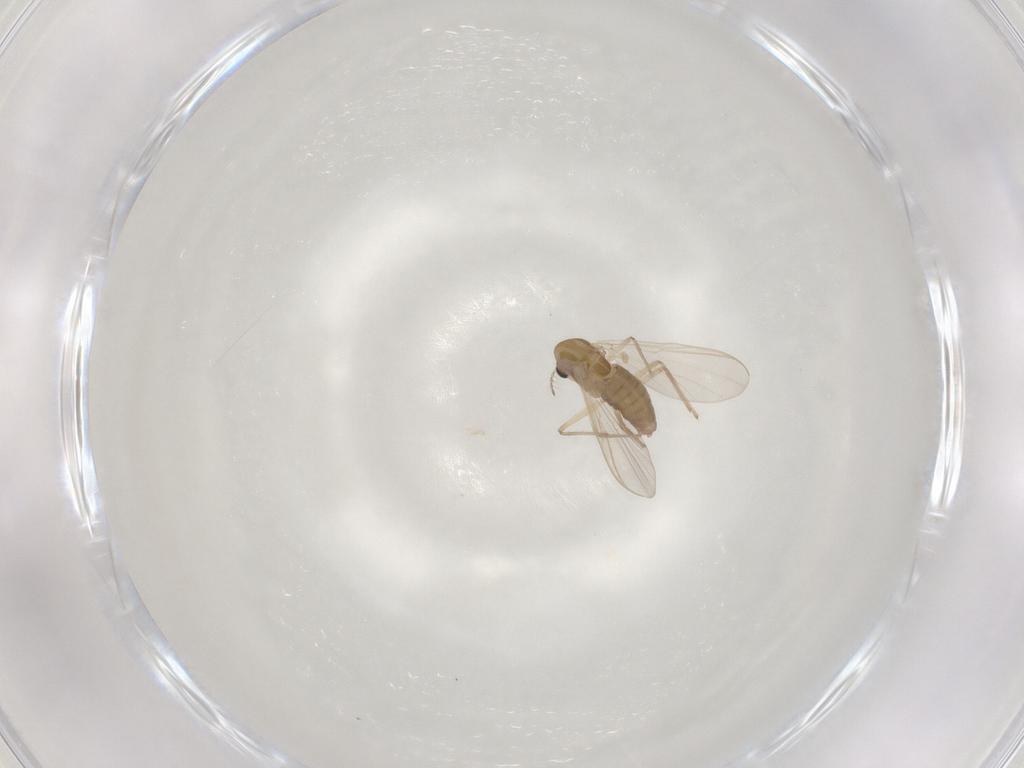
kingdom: Animalia
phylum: Arthropoda
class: Insecta
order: Diptera
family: Chironomidae
